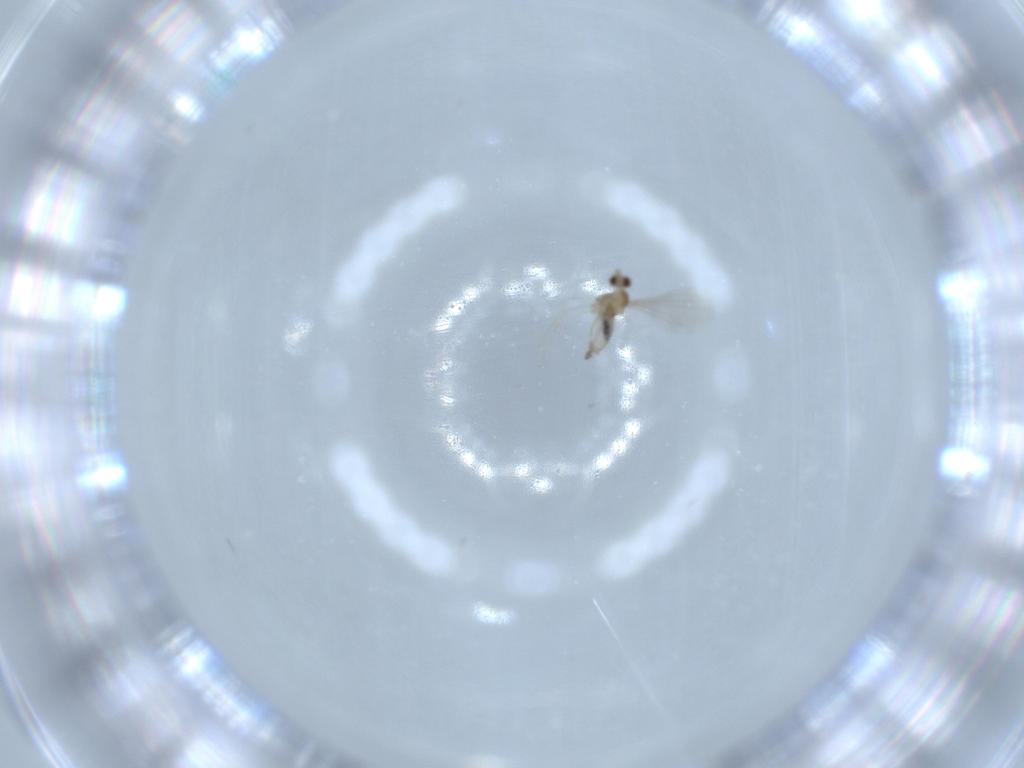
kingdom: Animalia
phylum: Arthropoda
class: Insecta
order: Diptera
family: Cecidomyiidae
